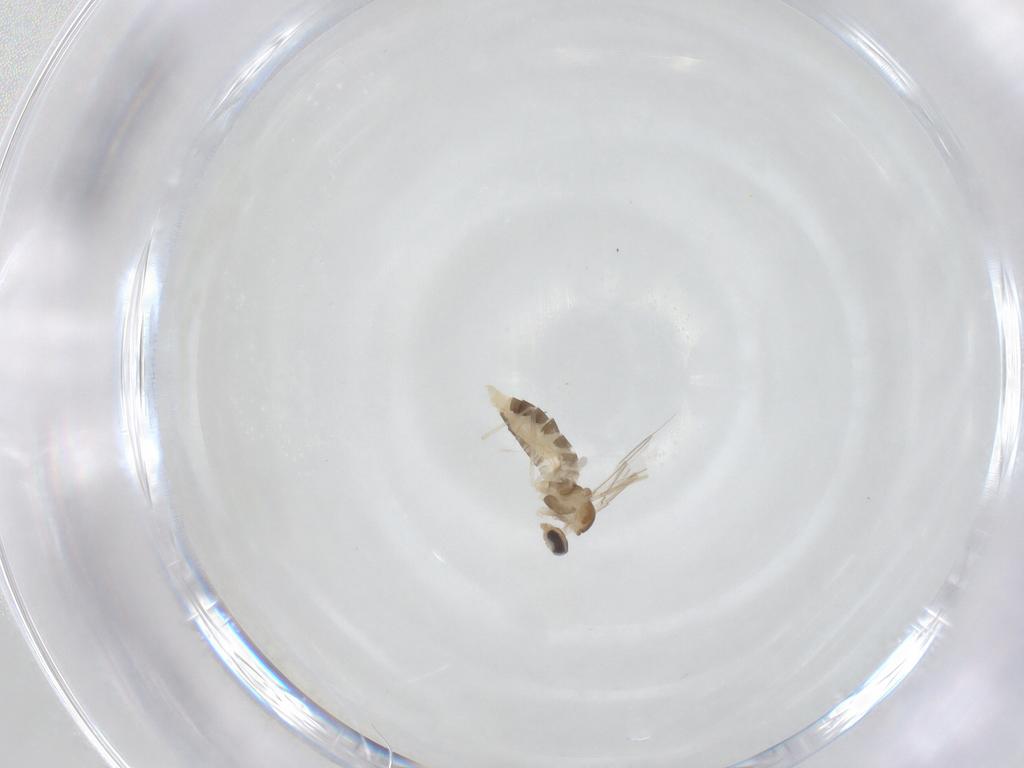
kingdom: Animalia
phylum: Arthropoda
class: Insecta
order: Diptera
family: Cecidomyiidae
